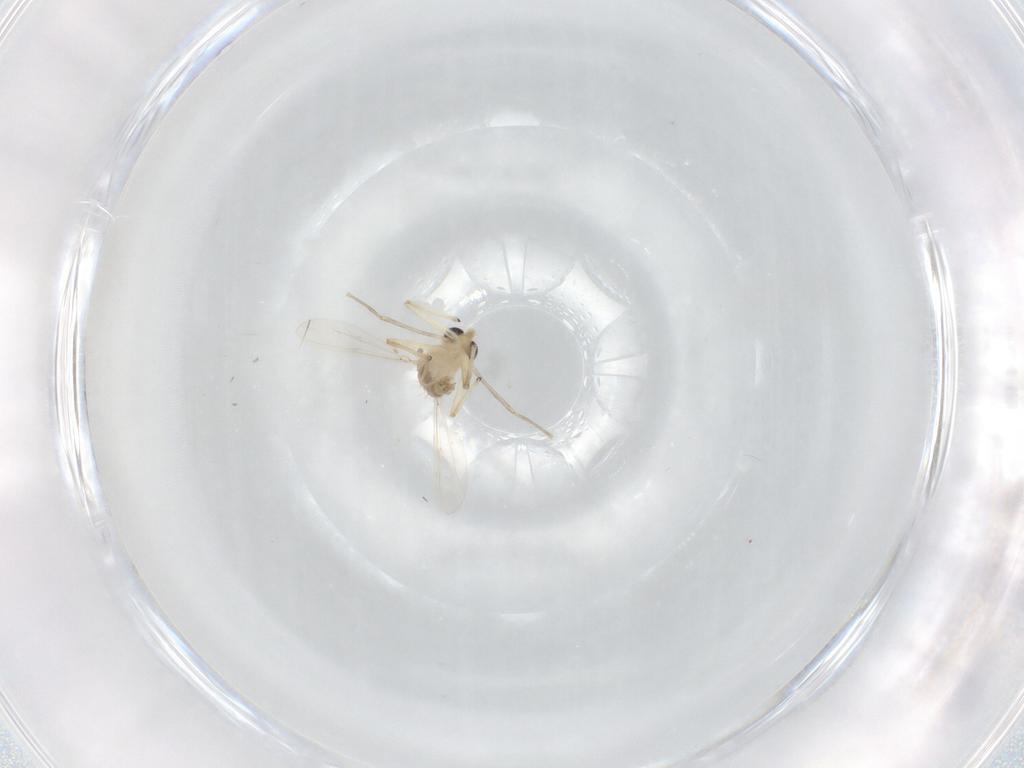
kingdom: Animalia
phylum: Arthropoda
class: Insecta
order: Diptera
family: Chironomidae
